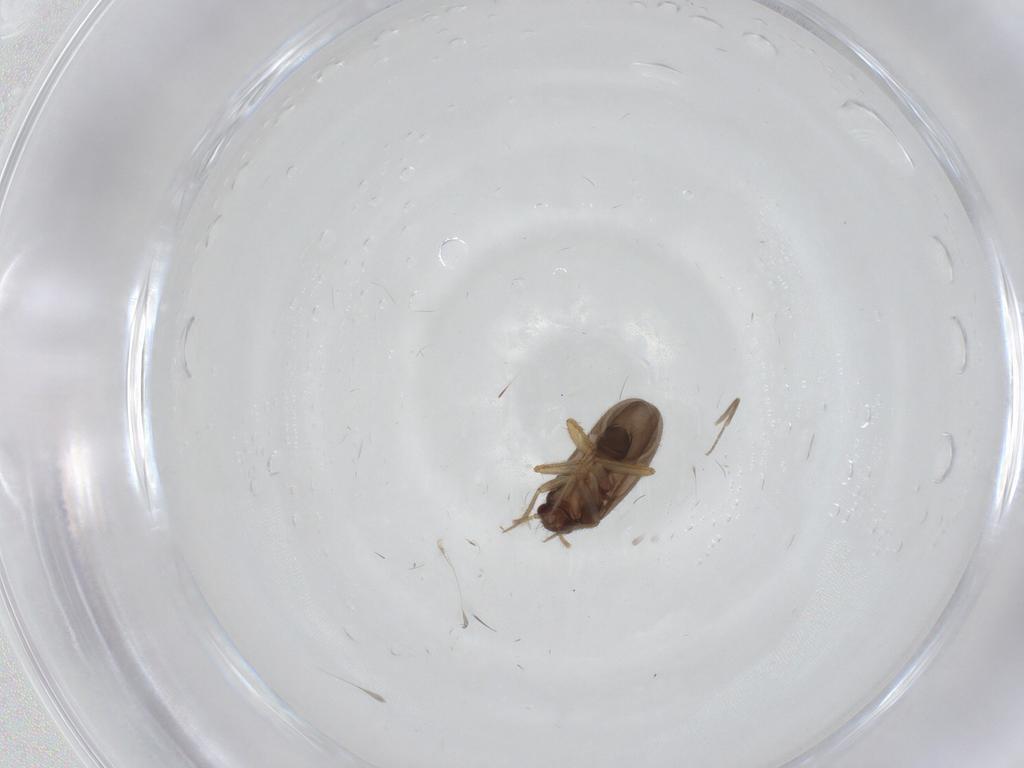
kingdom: Animalia
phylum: Arthropoda
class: Insecta
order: Hemiptera
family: Ceratocombidae
